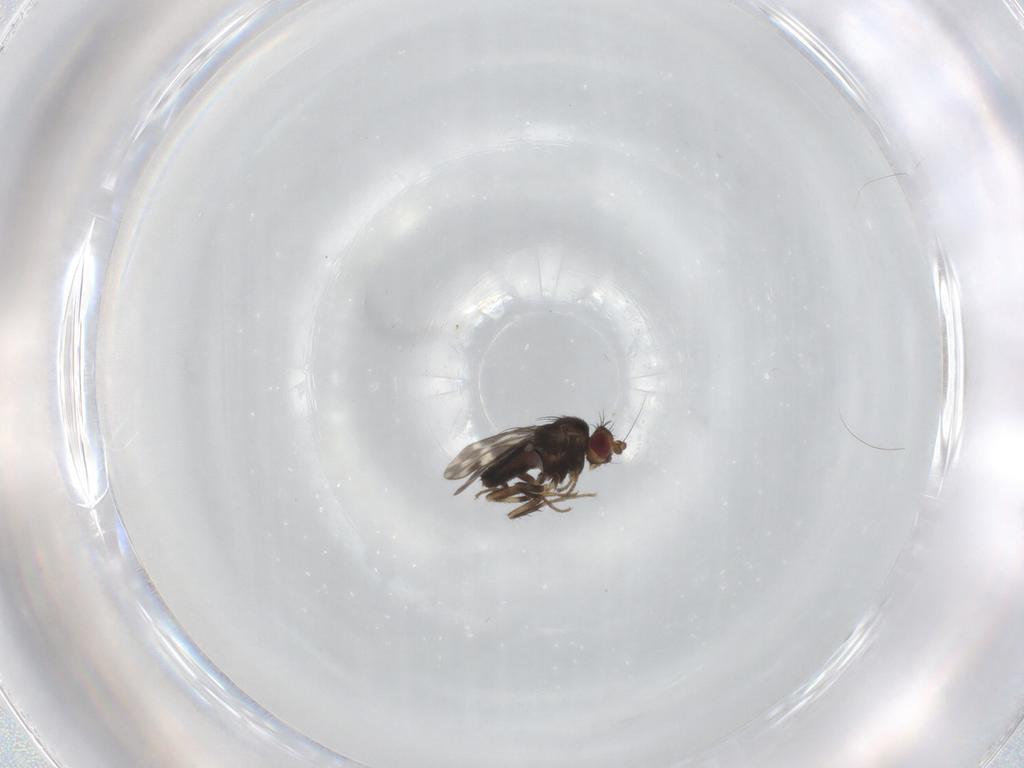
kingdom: Animalia
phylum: Arthropoda
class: Insecta
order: Diptera
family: Sphaeroceridae
